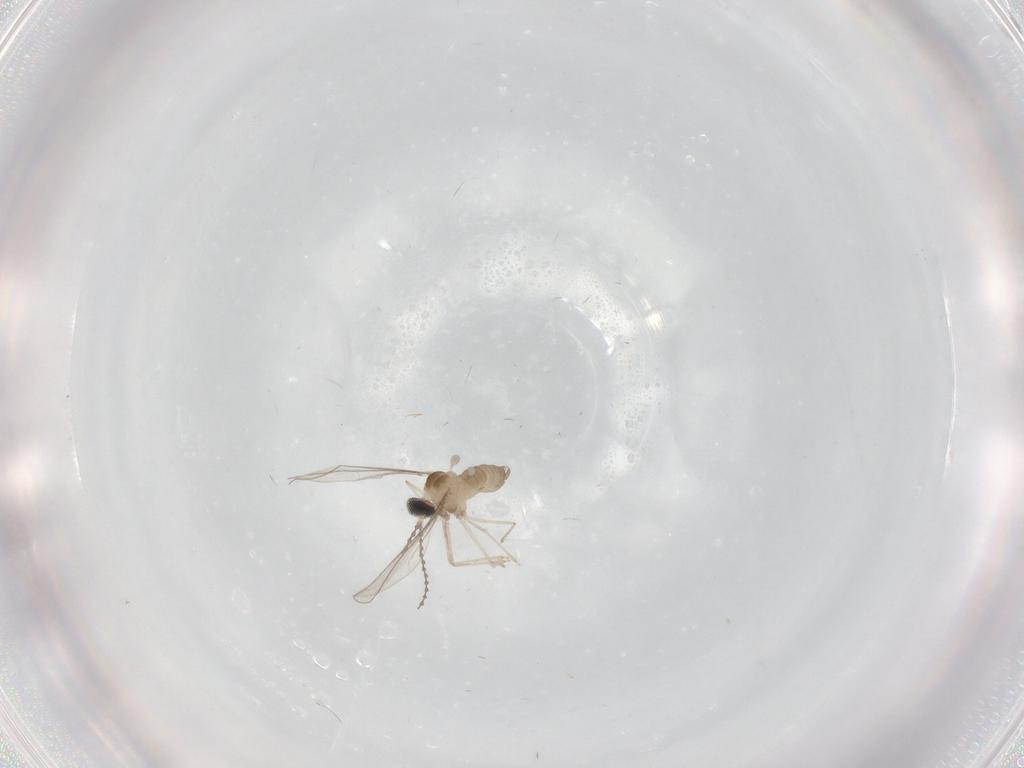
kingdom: Animalia
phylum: Arthropoda
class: Insecta
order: Diptera
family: Cecidomyiidae
